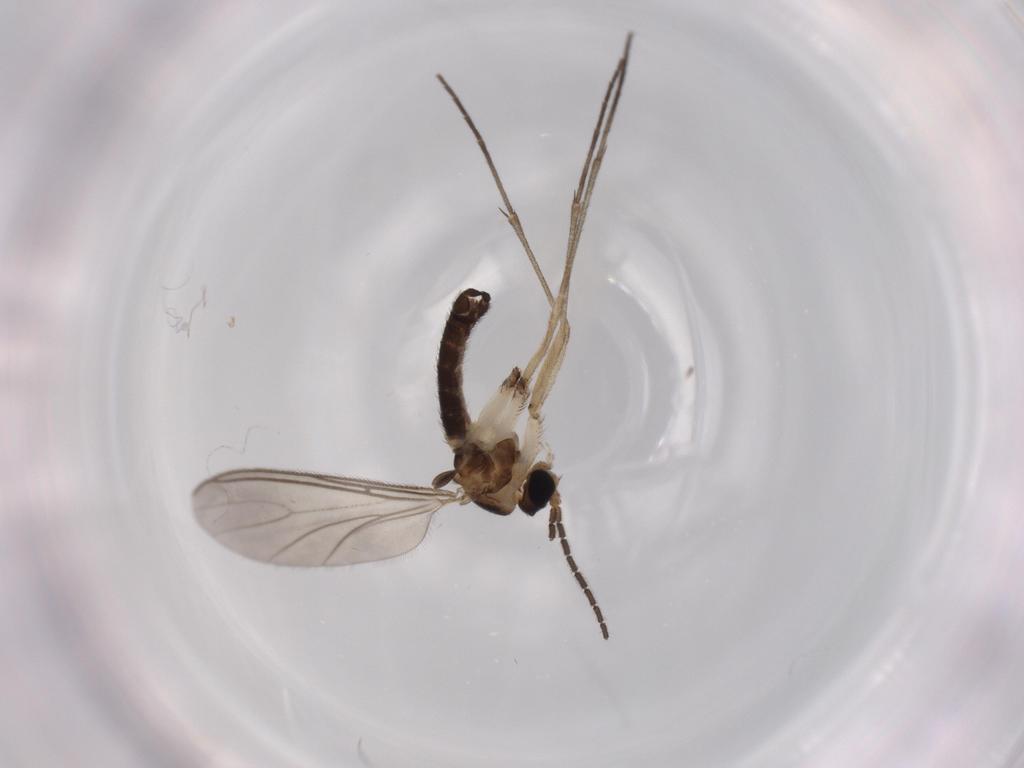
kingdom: Animalia
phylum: Arthropoda
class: Insecta
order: Diptera
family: Sciaridae
